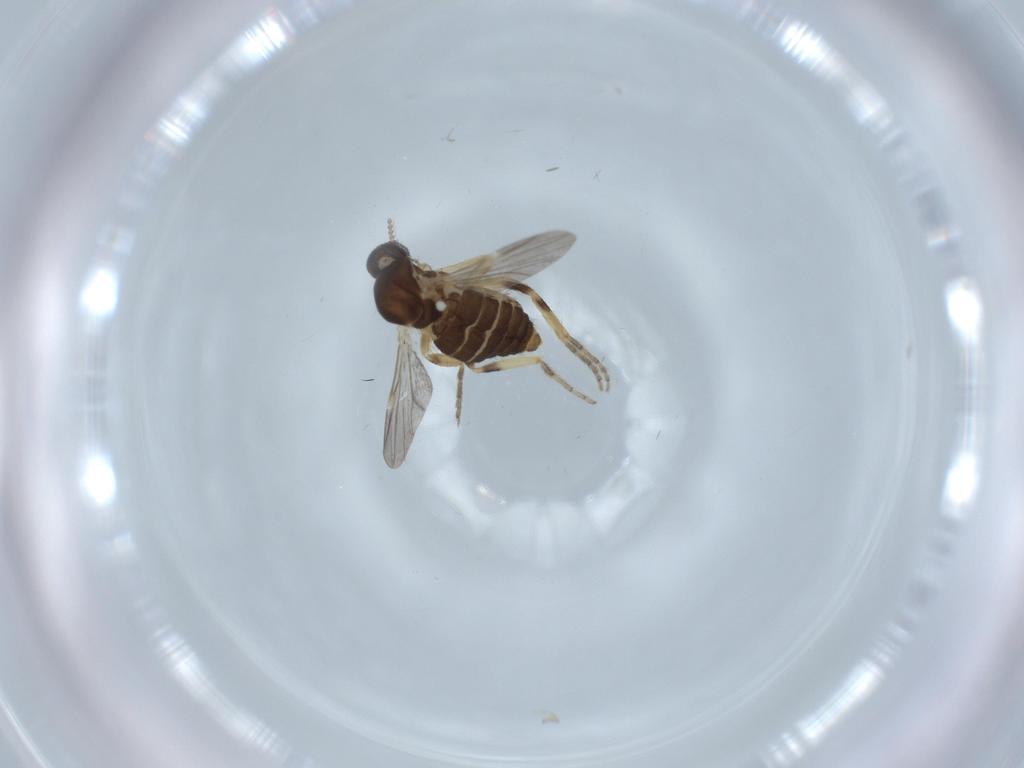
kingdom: Animalia
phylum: Arthropoda
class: Insecta
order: Diptera
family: Ceratopogonidae
